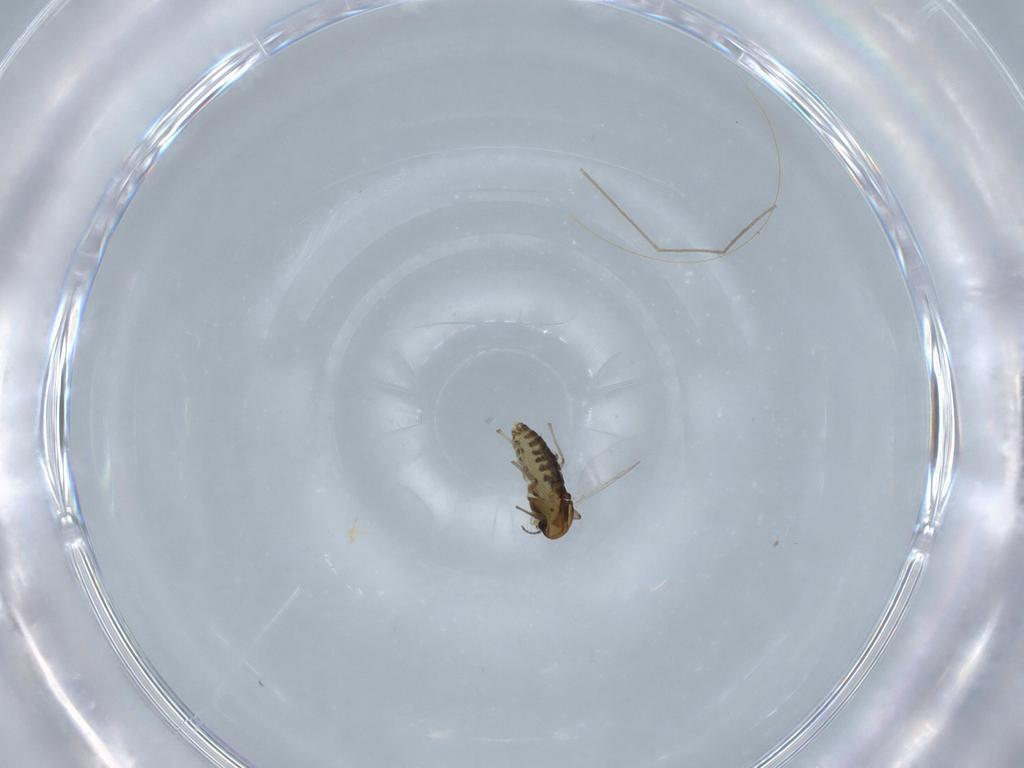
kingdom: Animalia
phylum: Arthropoda
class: Insecta
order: Diptera
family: Chironomidae
